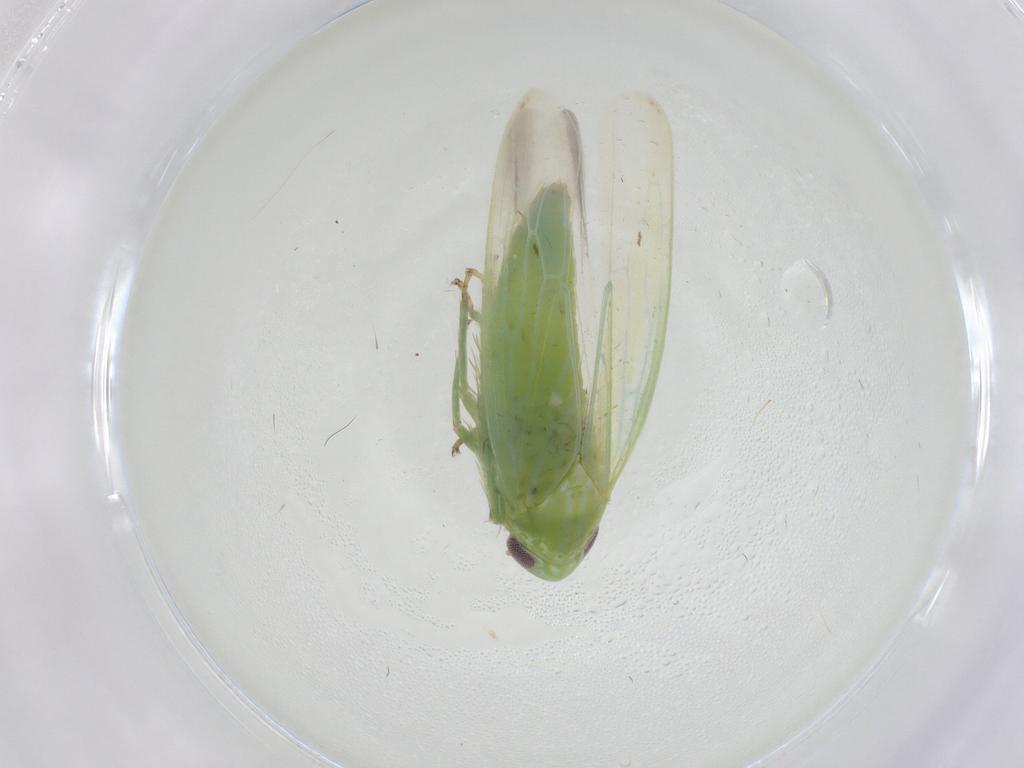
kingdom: Animalia
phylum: Arthropoda
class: Insecta
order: Hemiptera
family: Cicadellidae
